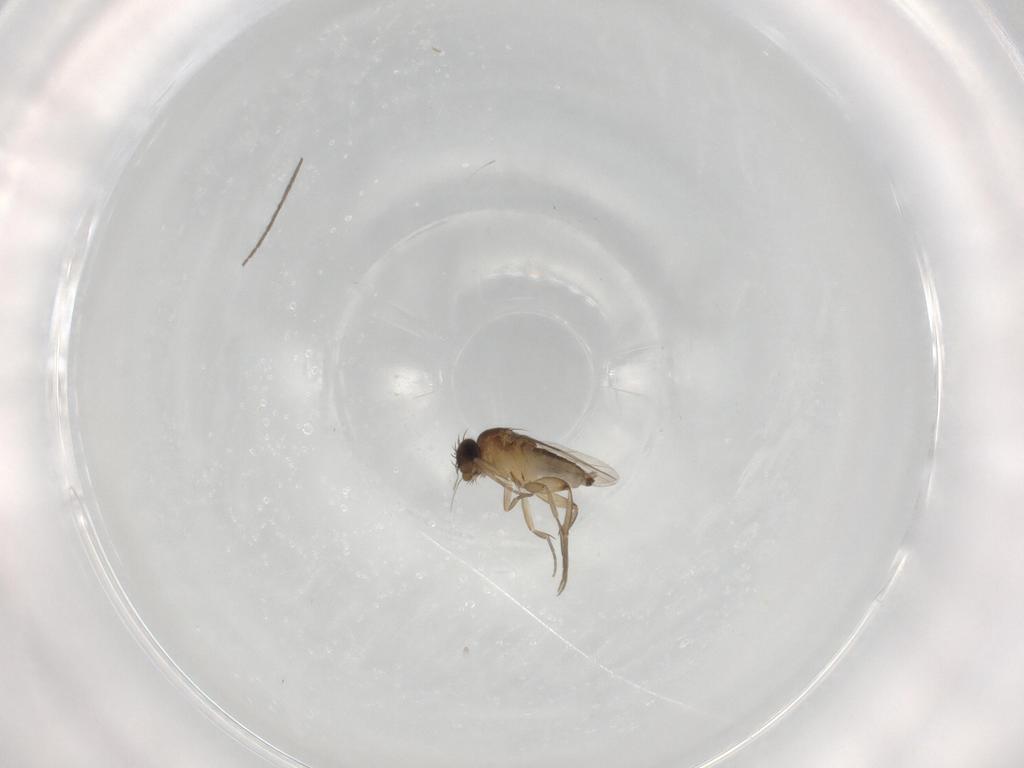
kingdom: Animalia
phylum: Arthropoda
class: Insecta
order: Diptera
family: Phoridae
